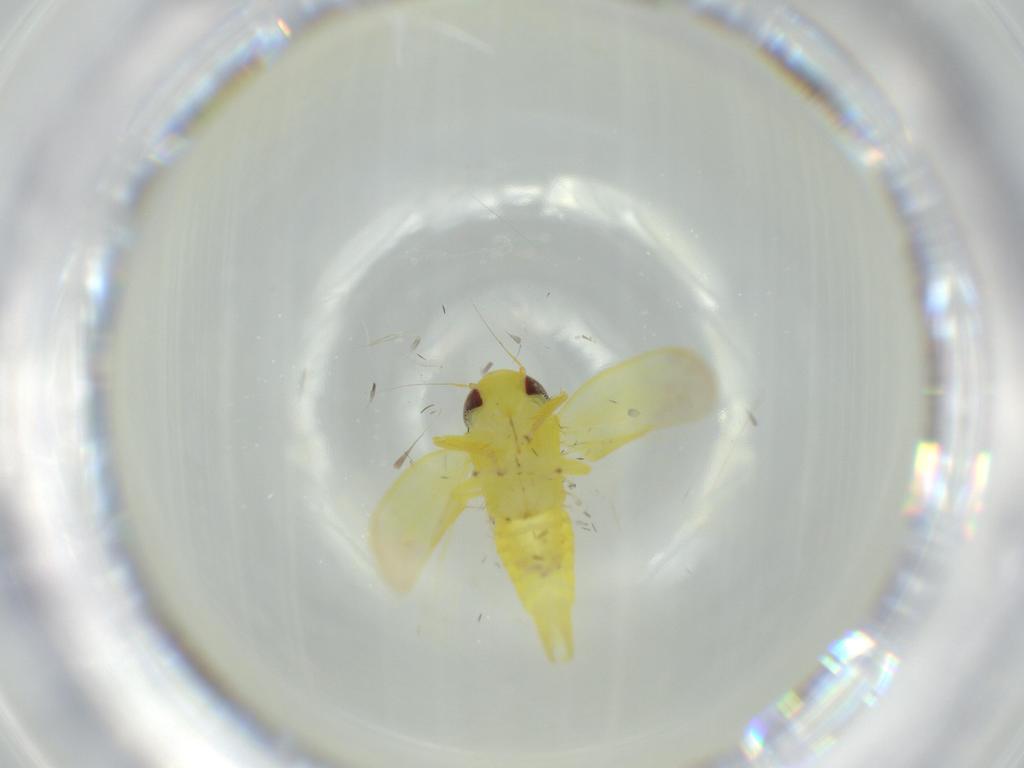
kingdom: Animalia
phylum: Arthropoda
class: Insecta
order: Hemiptera
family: Cicadellidae
